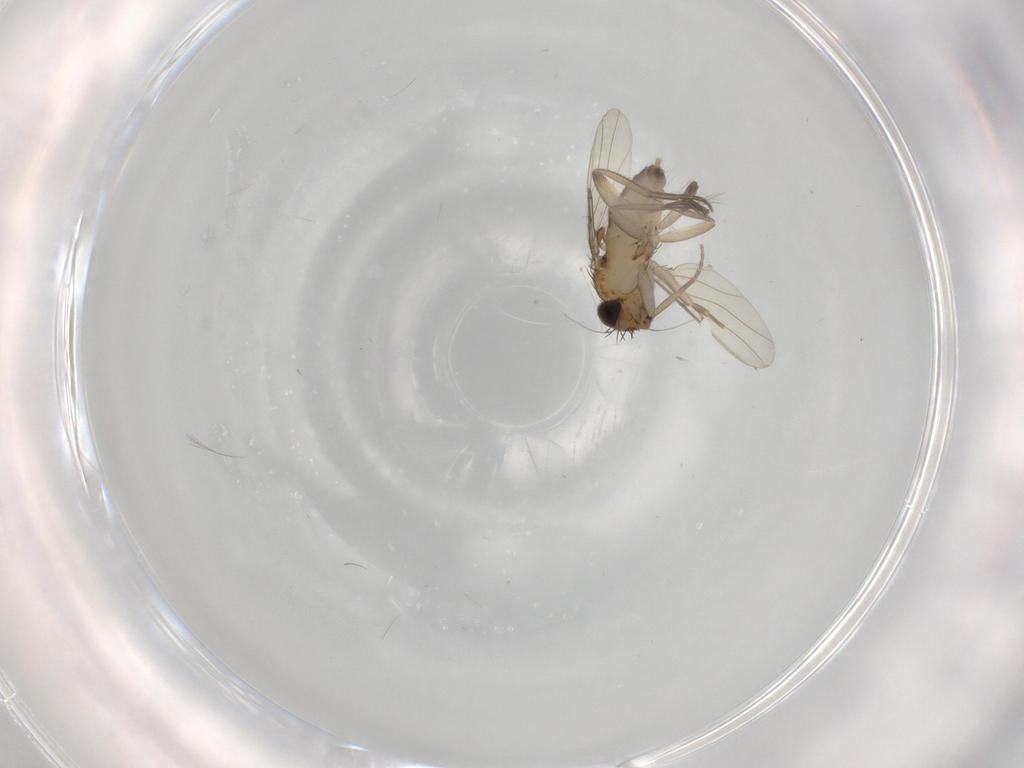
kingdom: Animalia
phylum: Arthropoda
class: Insecta
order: Diptera
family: Phoridae
